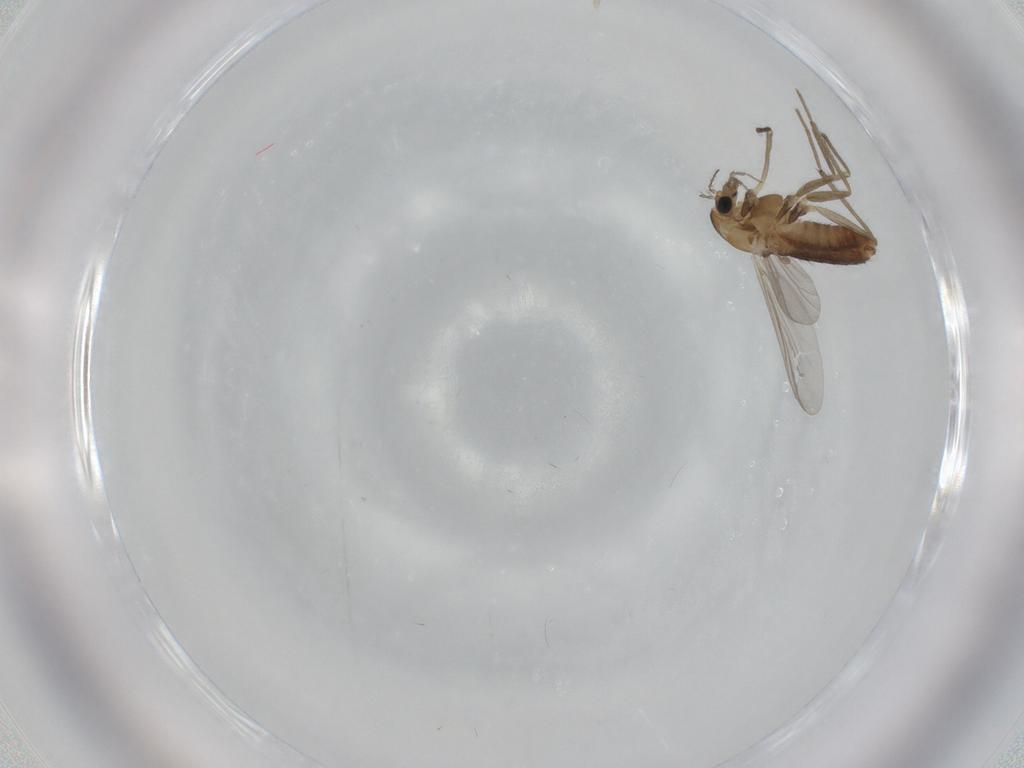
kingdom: Animalia
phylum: Arthropoda
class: Insecta
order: Diptera
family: Chironomidae
